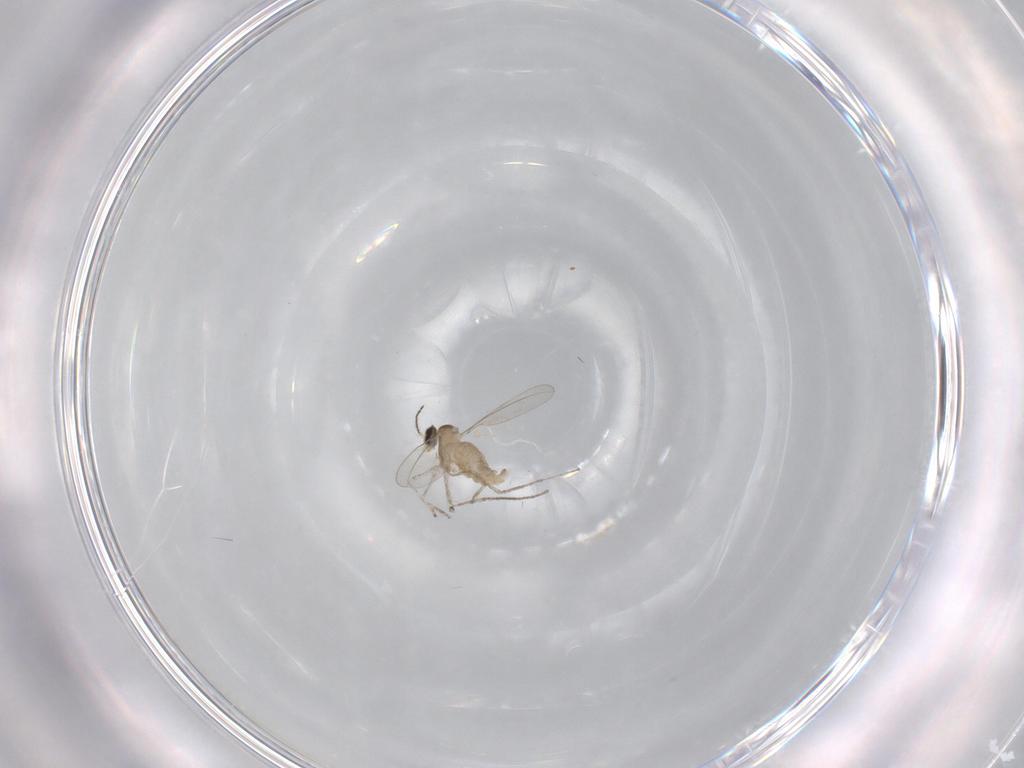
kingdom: Animalia
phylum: Arthropoda
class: Insecta
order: Diptera
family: Cecidomyiidae
